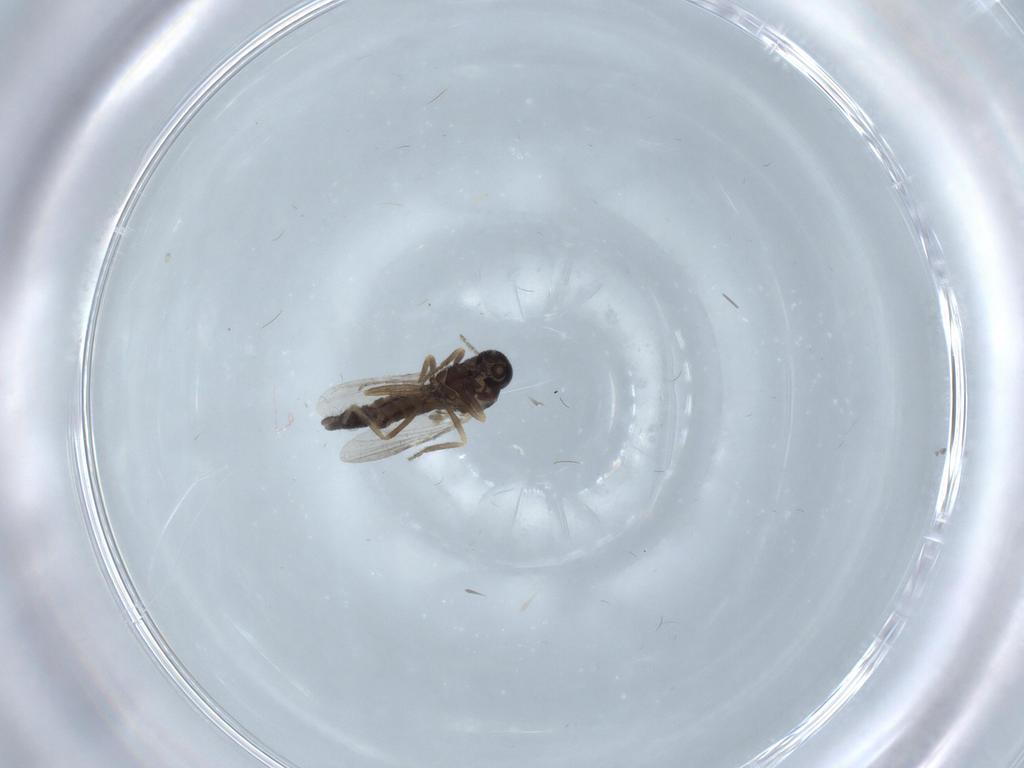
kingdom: Animalia
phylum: Arthropoda
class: Insecta
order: Diptera
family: Ceratopogonidae
